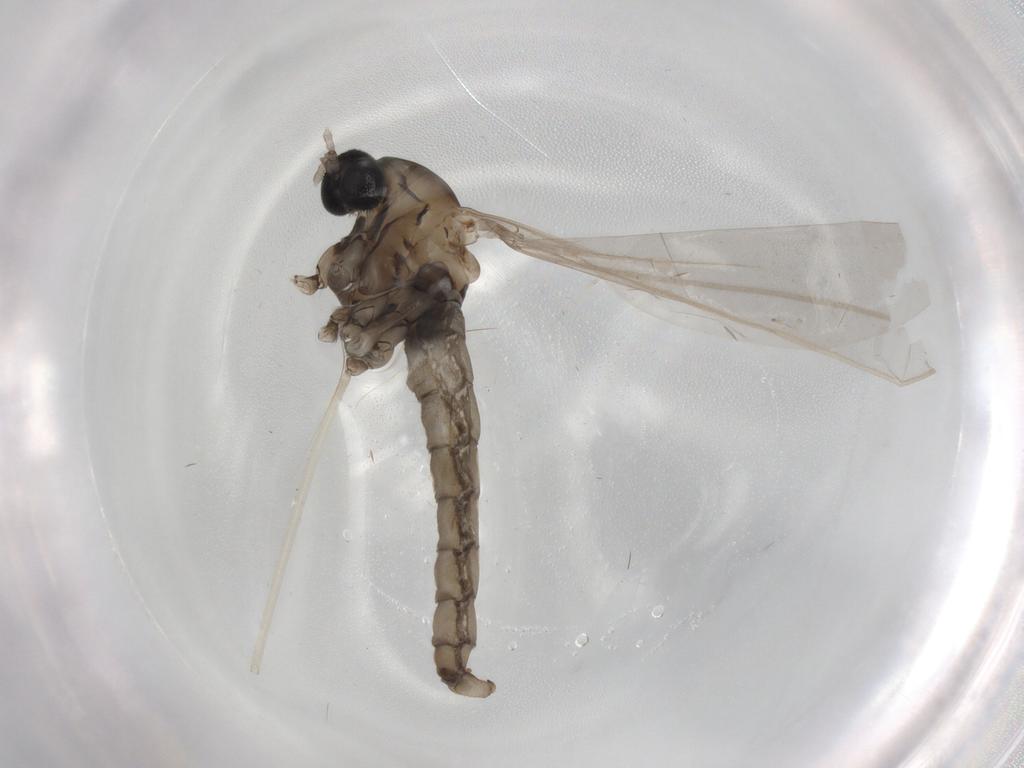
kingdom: Animalia
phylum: Arthropoda
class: Insecta
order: Diptera
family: Cecidomyiidae
